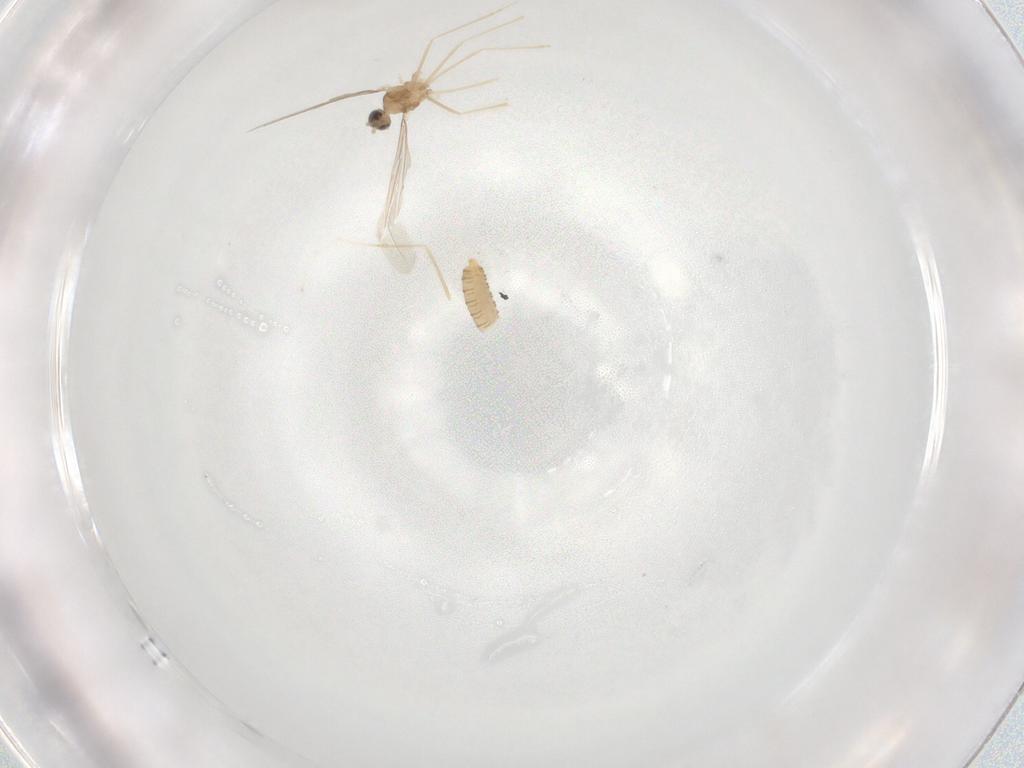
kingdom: Animalia
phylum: Arthropoda
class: Insecta
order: Diptera
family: Cecidomyiidae
